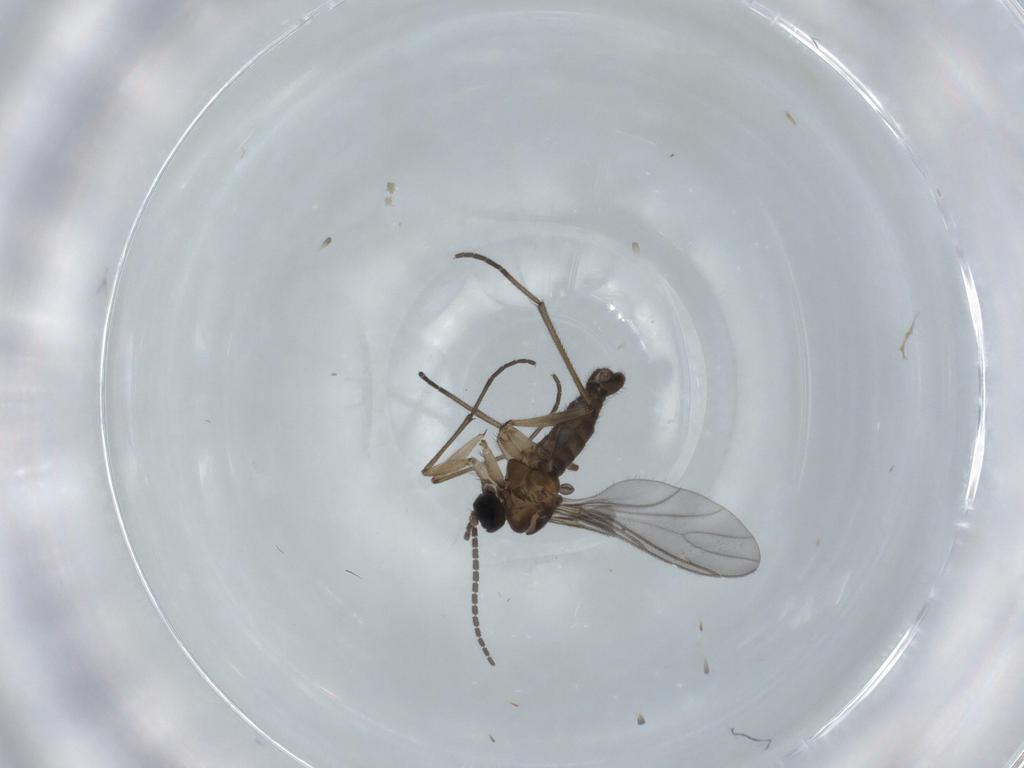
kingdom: Animalia
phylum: Arthropoda
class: Insecta
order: Diptera
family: Sciaridae
